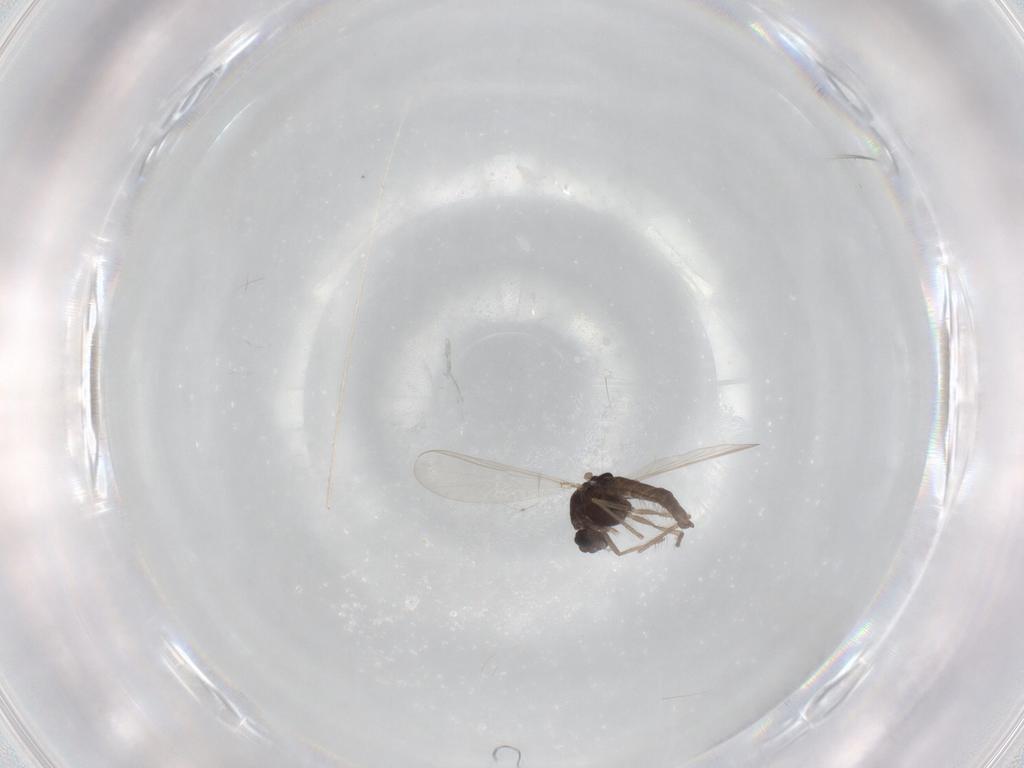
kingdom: Animalia
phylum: Arthropoda
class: Insecta
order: Diptera
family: Chironomidae
